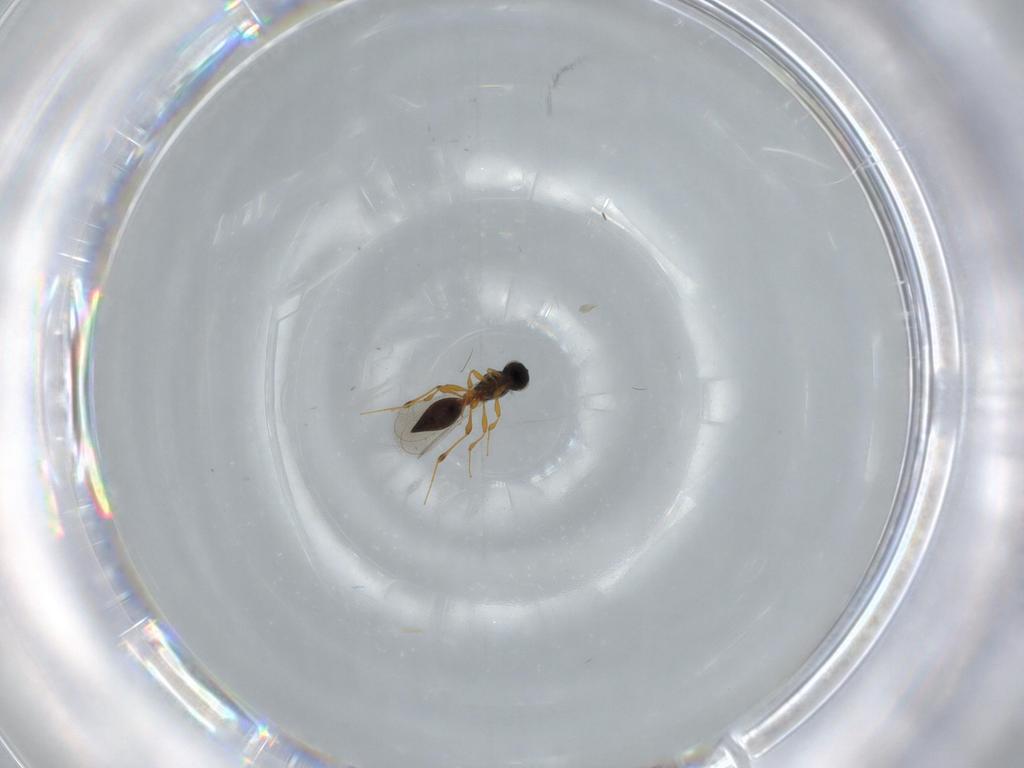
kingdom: Animalia
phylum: Arthropoda
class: Insecta
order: Hymenoptera
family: Platygastridae
